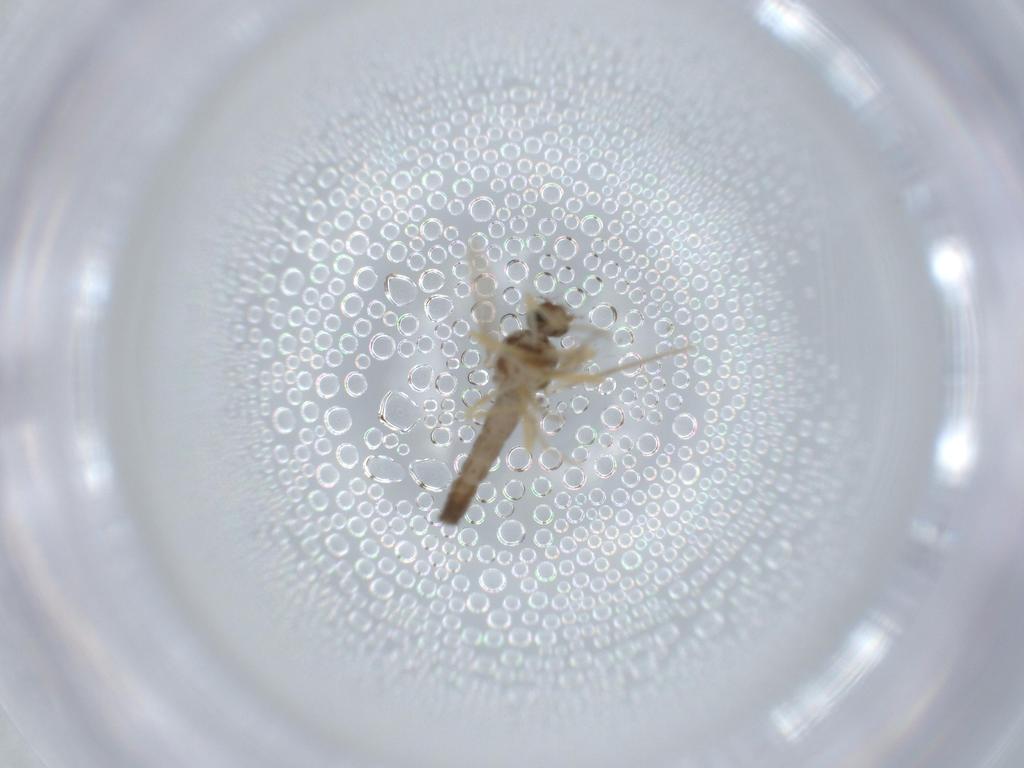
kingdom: Animalia
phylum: Arthropoda
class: Insecta
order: Diptera
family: Ceratopogonidae
